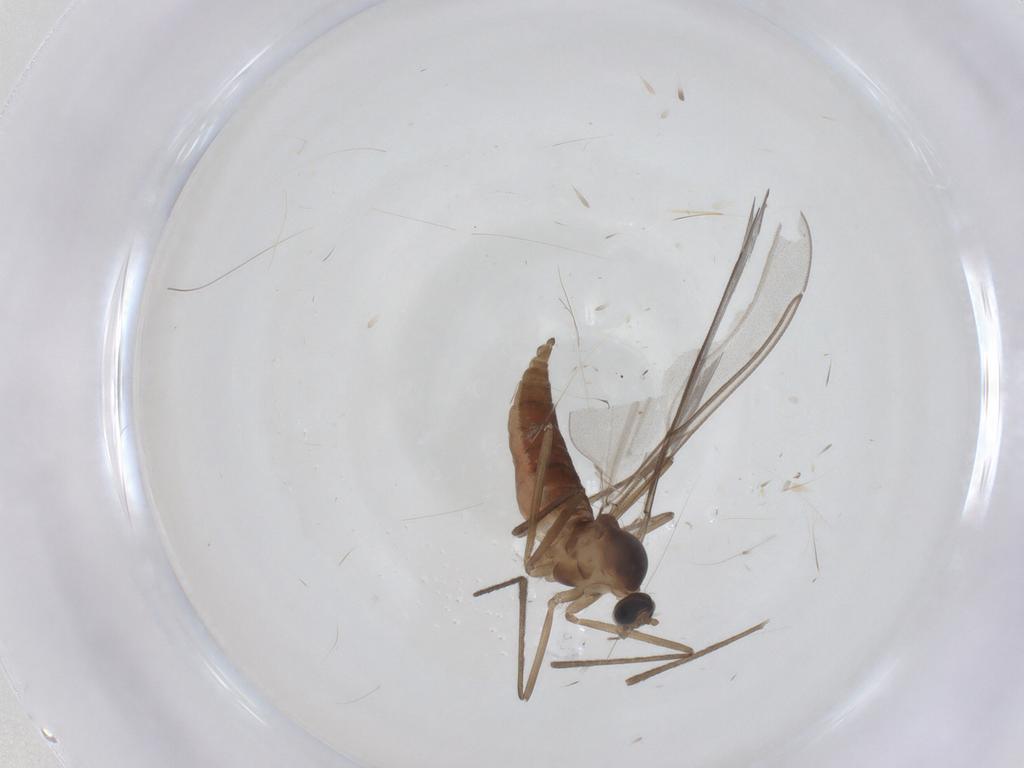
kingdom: Animalia
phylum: Arthropoda
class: Insecta
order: Diptera
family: Cecidomyiidae
